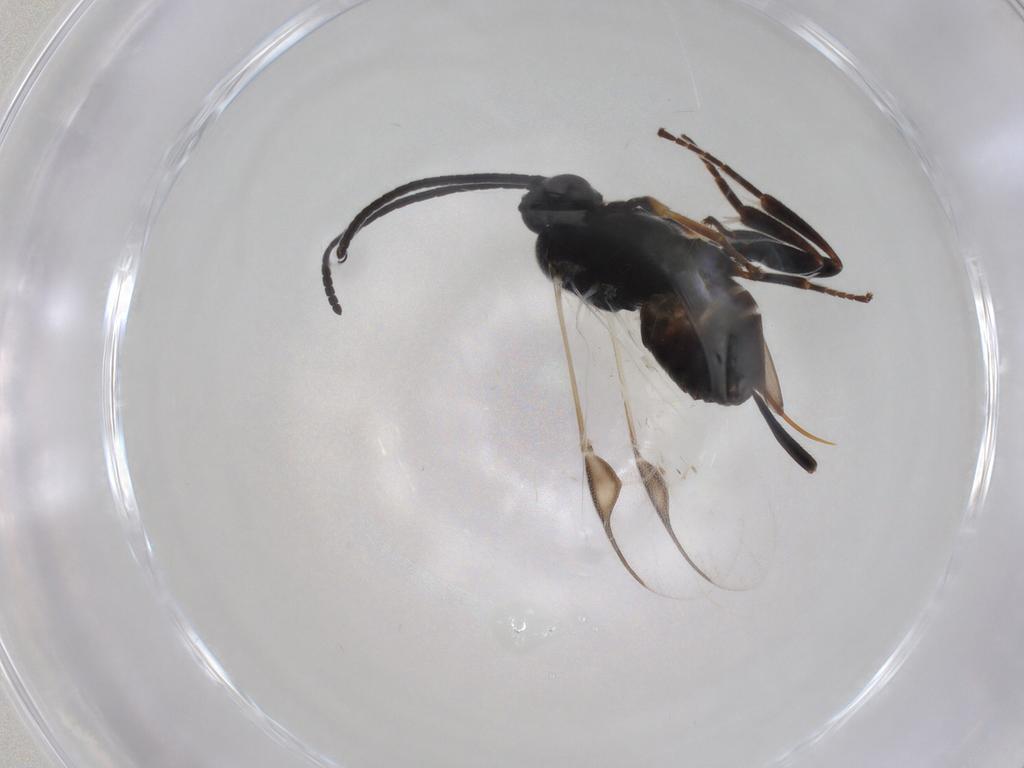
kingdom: Animalia
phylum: Arthropoda
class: Insecta
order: Hymenoptera
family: Braconidae
